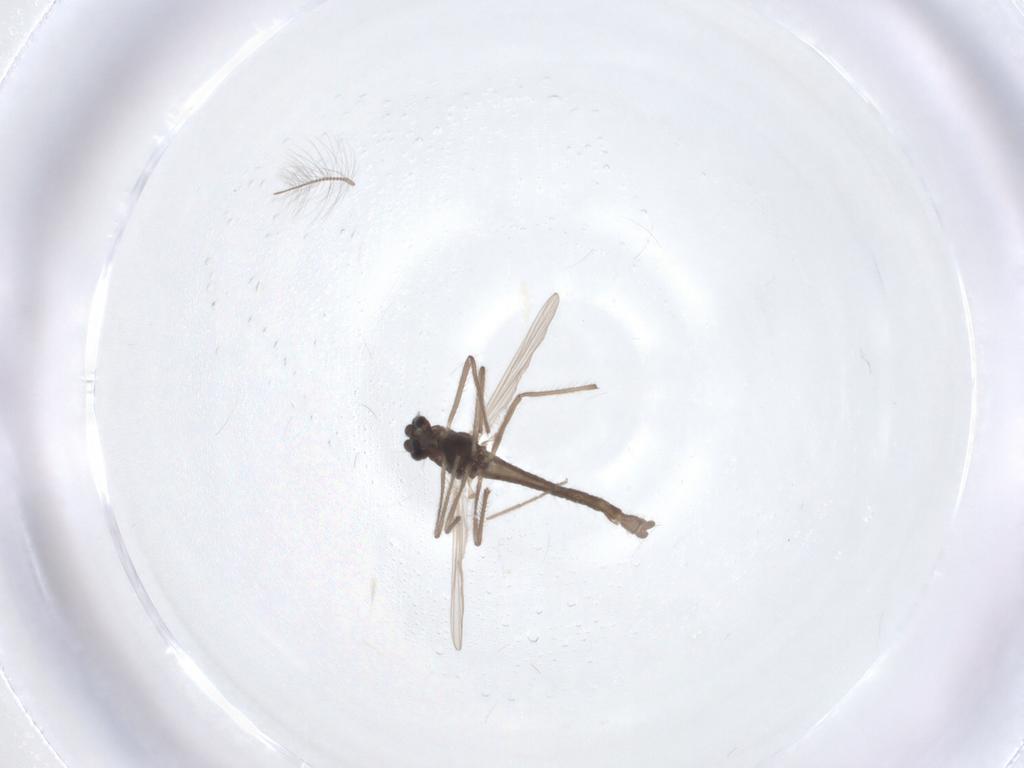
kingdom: Animalia
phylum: Arthropoda
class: Insecta
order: Diptera
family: Chironomidae
